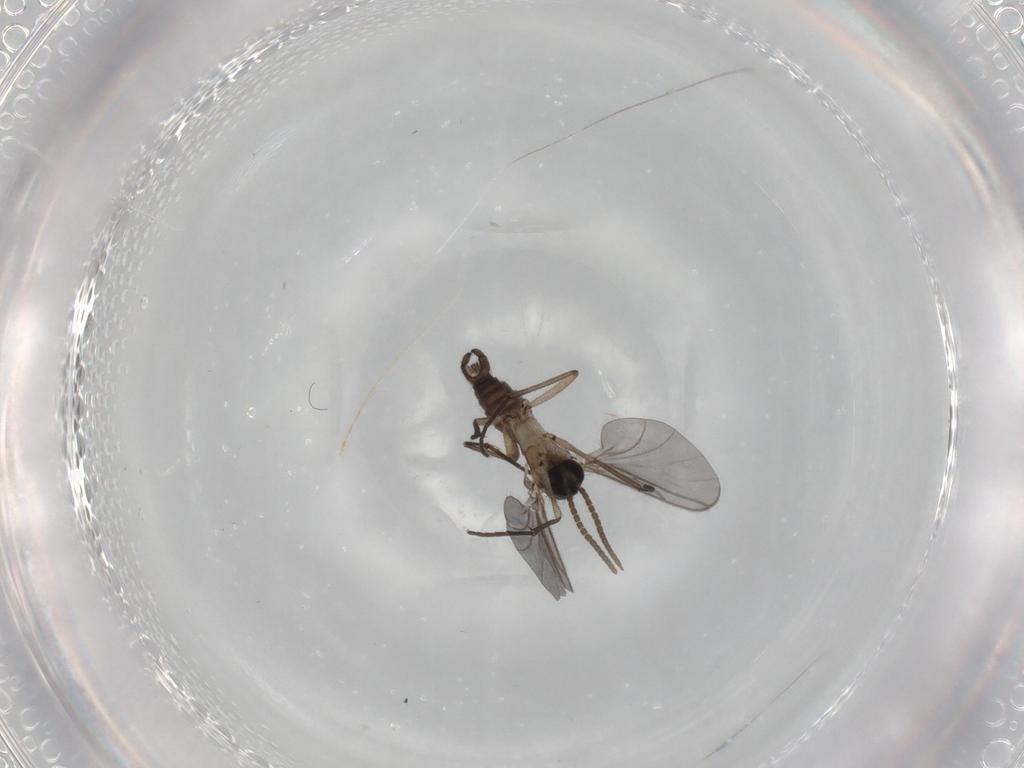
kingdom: Animalia
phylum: Arthropoda
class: Insecta
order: Diptera
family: Sciaridae
